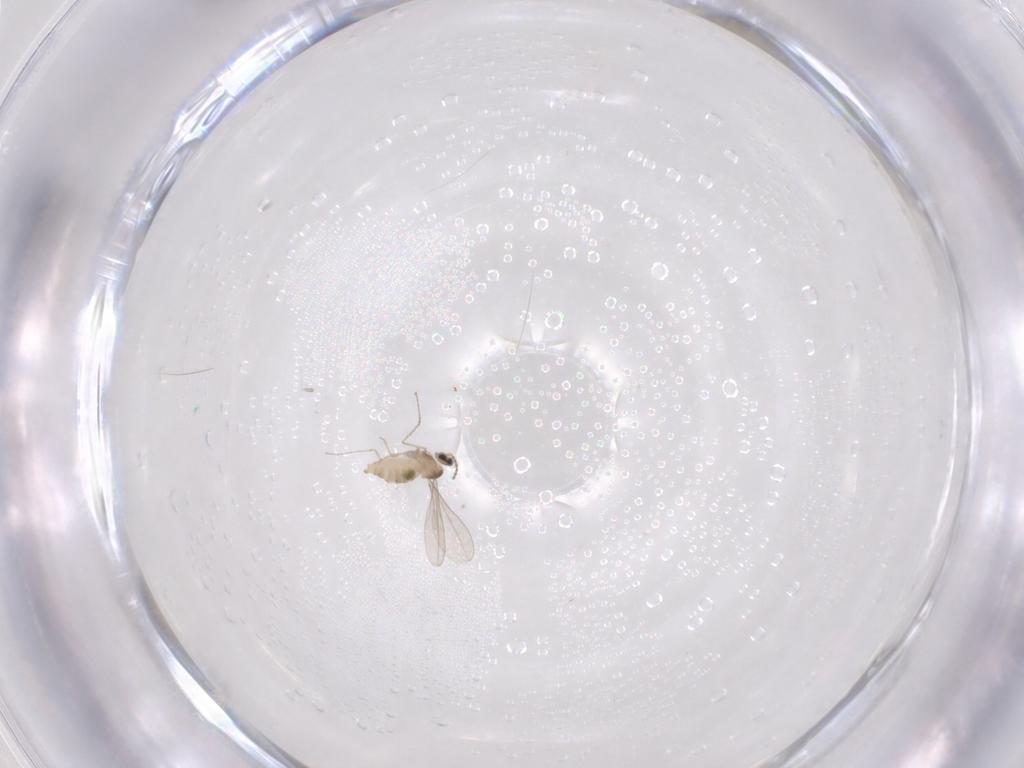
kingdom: Animalia
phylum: Arthropoda
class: Insecta
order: Diptera
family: Cecidomyiidae
